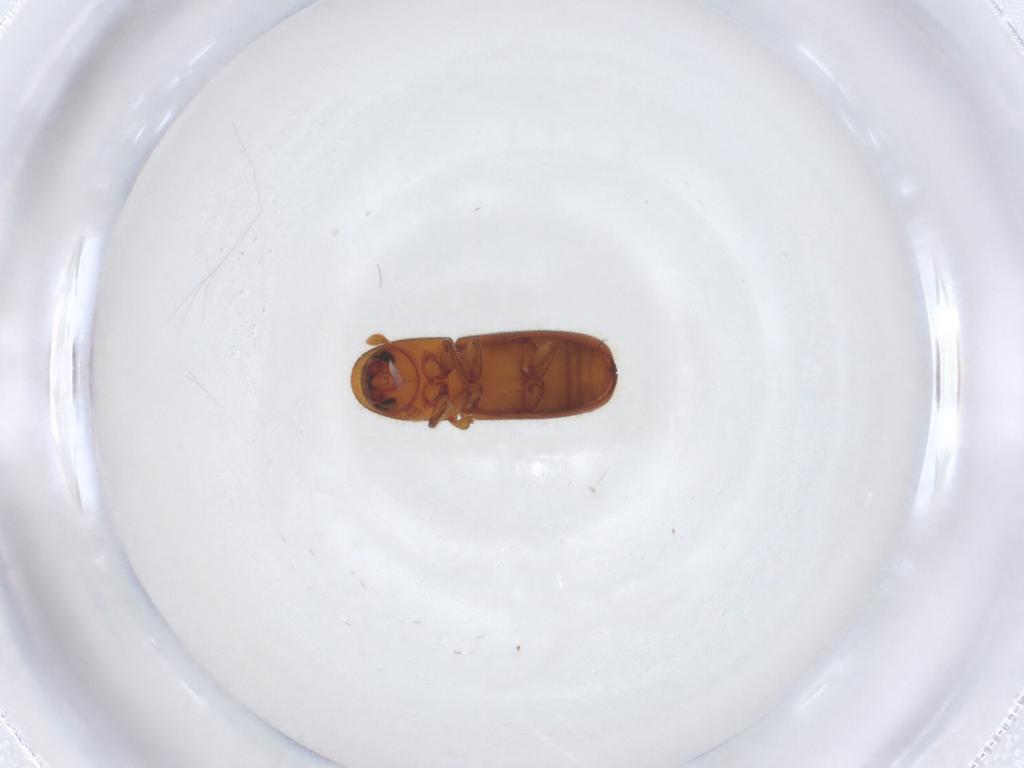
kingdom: Animalia
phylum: Arthropoda
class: Insecta
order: Coleoptera
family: Curculionidae
